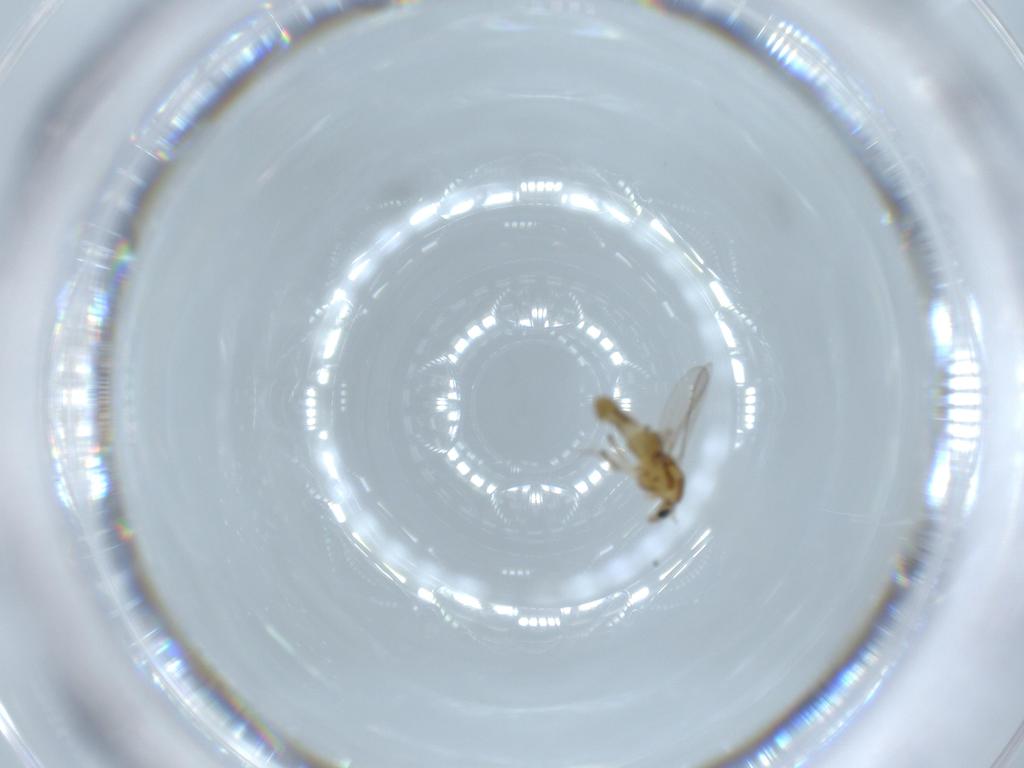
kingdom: Animalia
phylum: Arthropoda
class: Insecta
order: Diptera
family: Chironomidae
